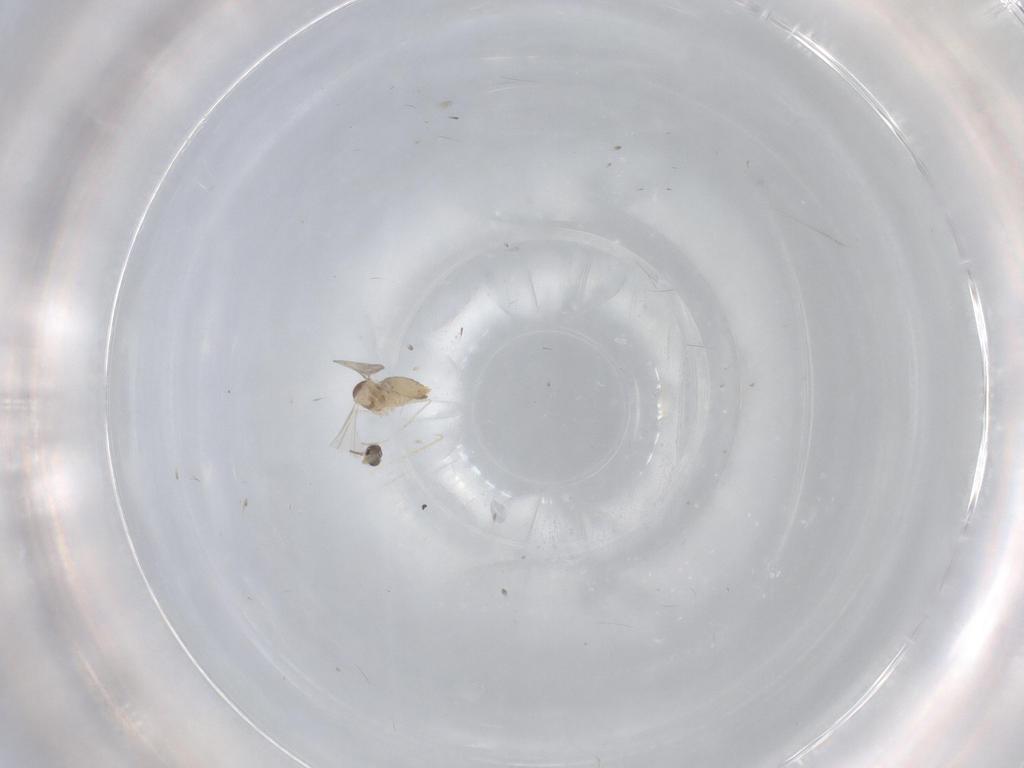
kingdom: Animalia
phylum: Arthropoda
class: Insecta
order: Diptera
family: Cecidomyiidae
